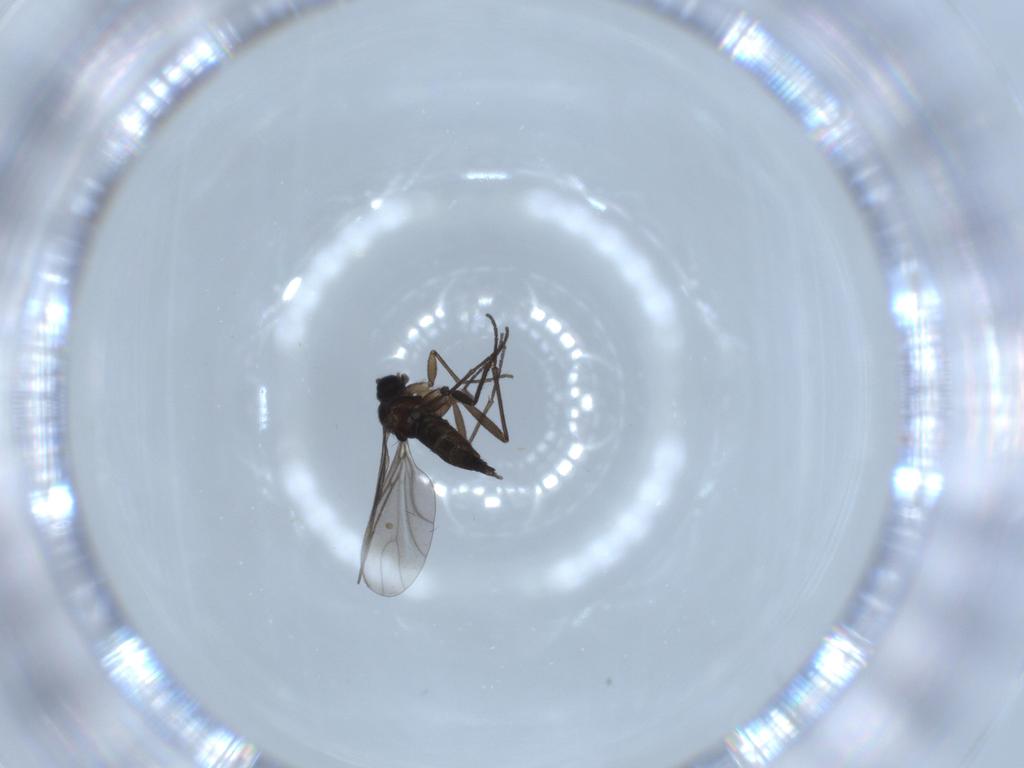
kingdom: Animalia
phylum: Arthropoda
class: Insecta
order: Diptera
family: Sciaridae
